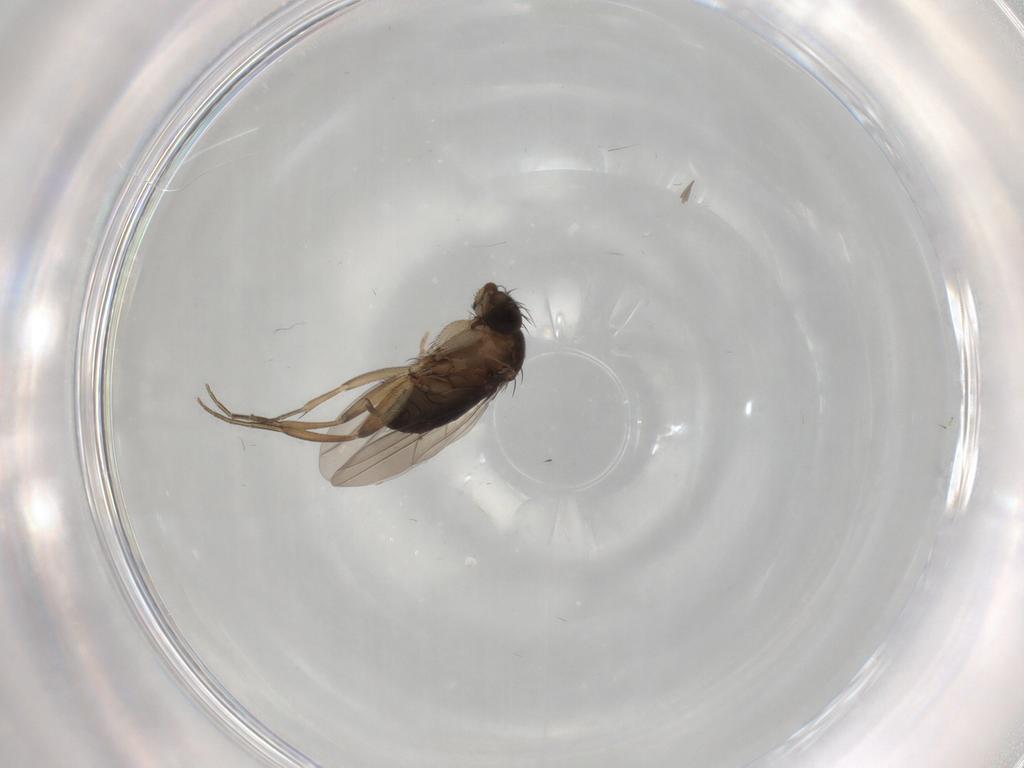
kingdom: Animalia
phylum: Arthropoda
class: Insecta
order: Diptera
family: Phoridae
